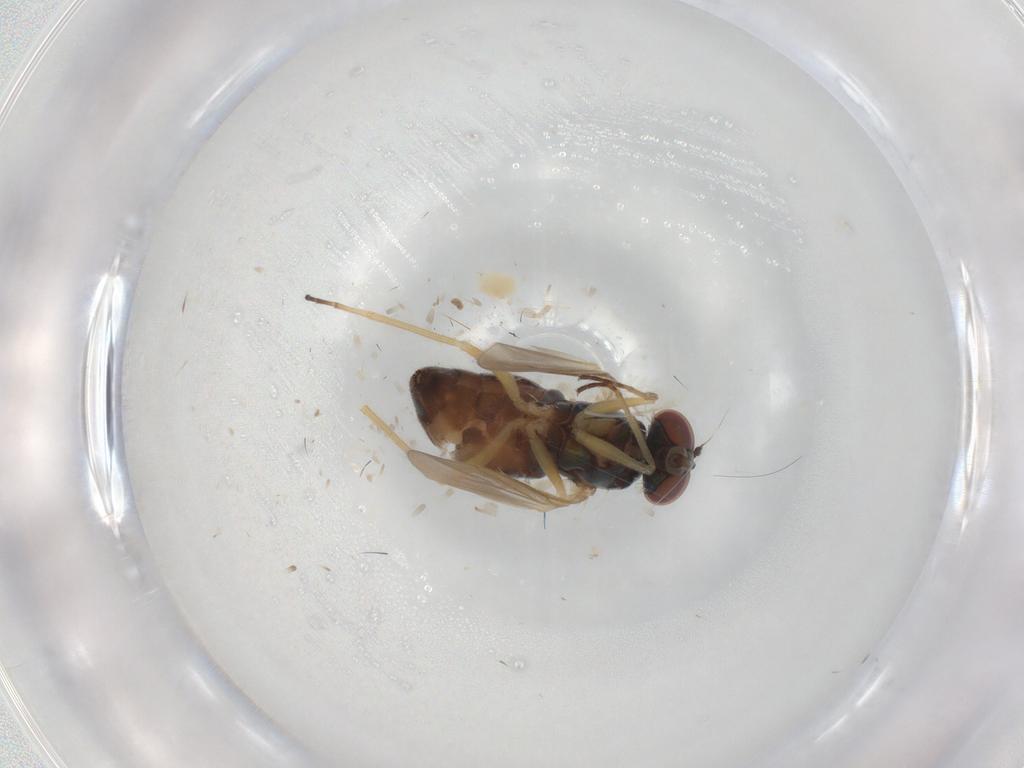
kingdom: Animalia
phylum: Arthropoda
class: Insecta
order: Diptera
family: Dolichopodidae
